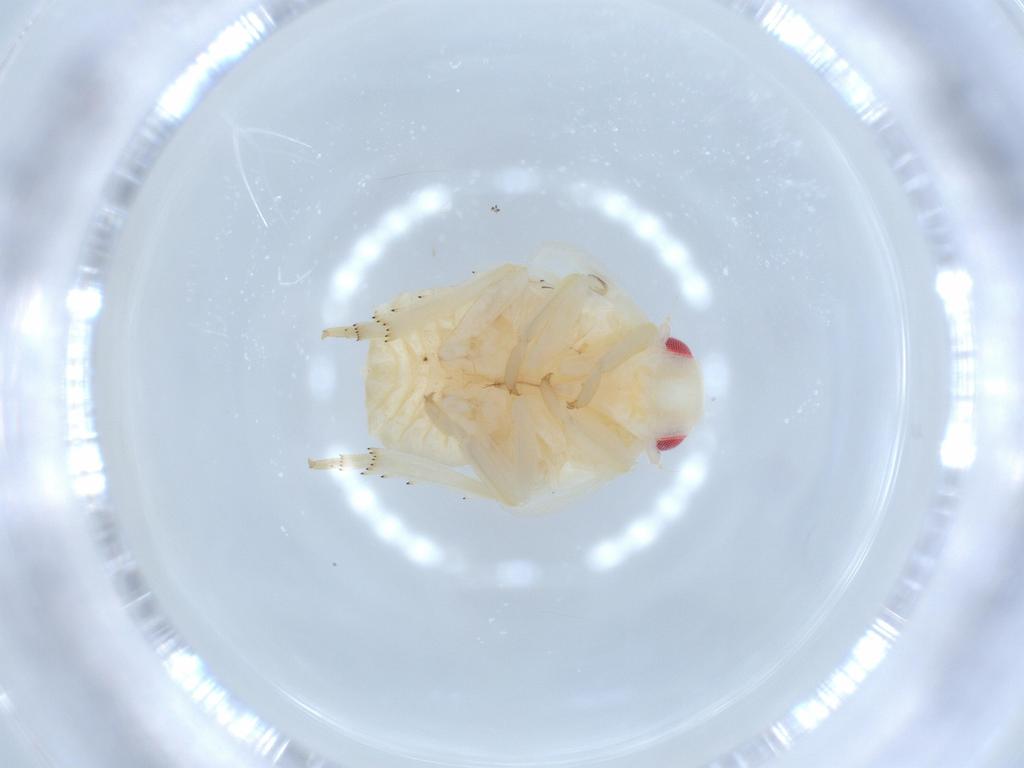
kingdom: Animalia
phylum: Arthropoda
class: Insecta
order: Hemiptera
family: Flatidae
